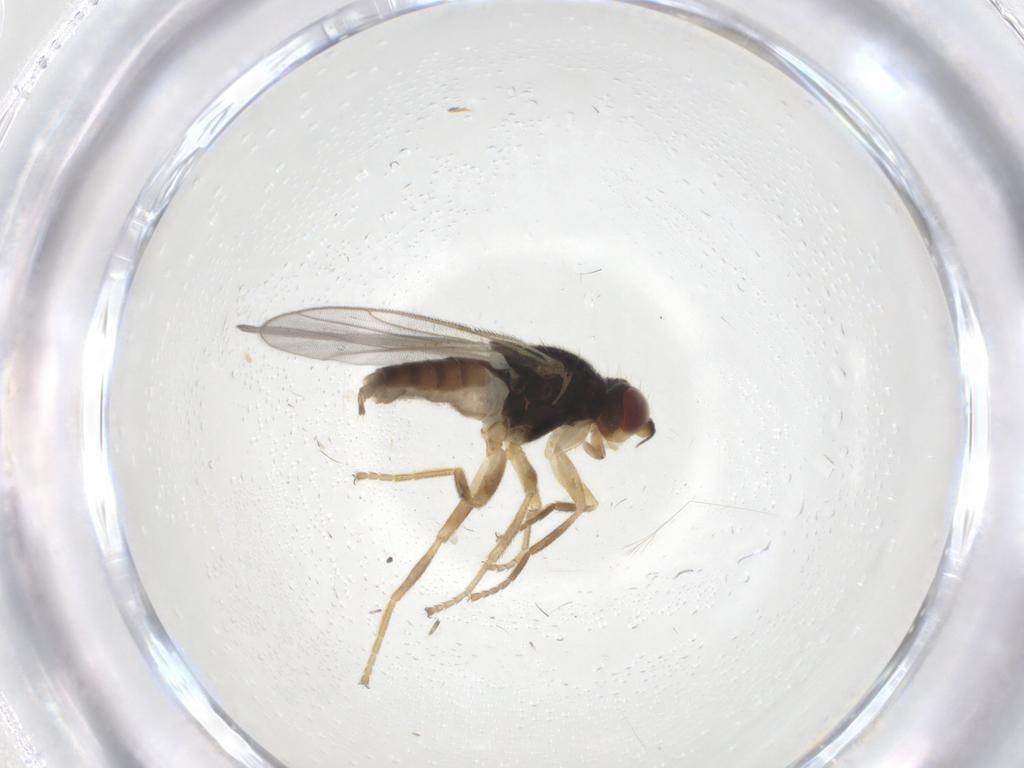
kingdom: Animalia
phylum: Arthropoda
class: Insecta
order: Diptera
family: Chloropidae
